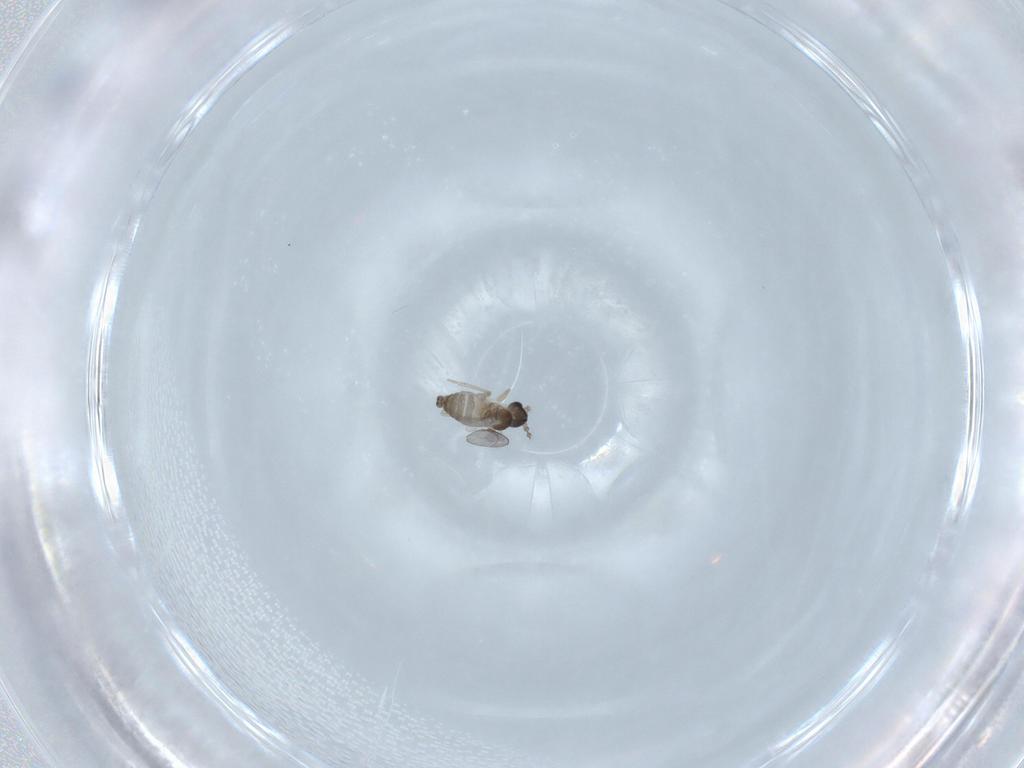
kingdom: Animalia
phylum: Arthropoda
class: Insecta
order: Diptera
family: Cecidomyiidae
